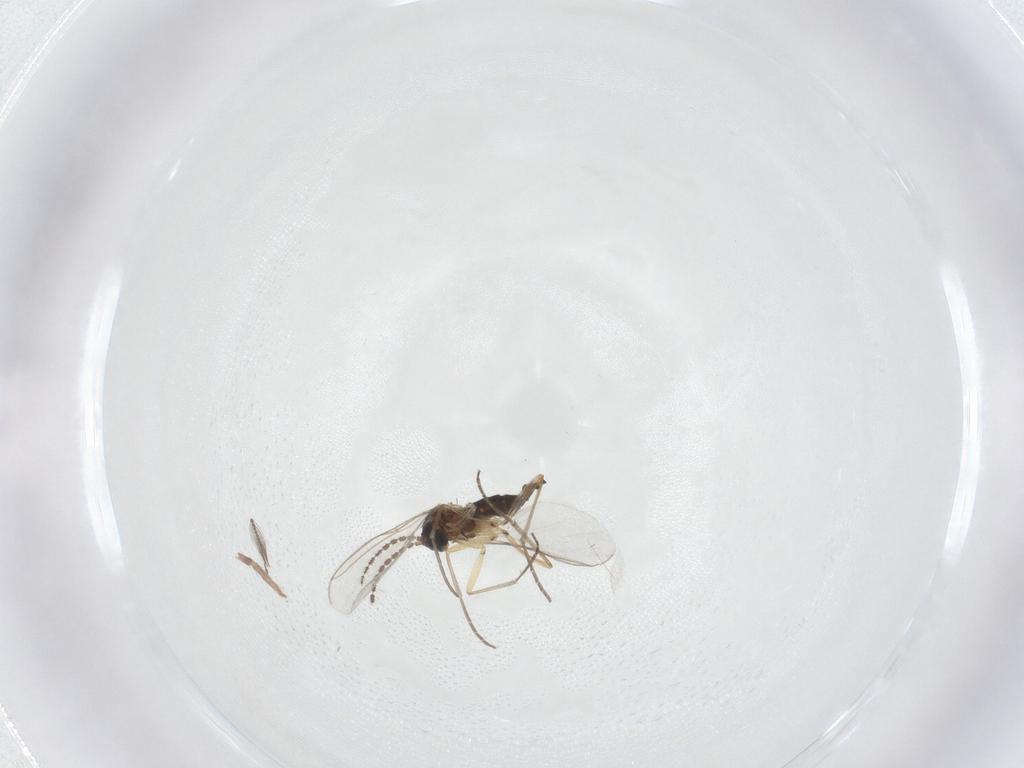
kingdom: Animalia
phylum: Arthropoda
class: Insecta
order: Diptera
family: Sciaridae
